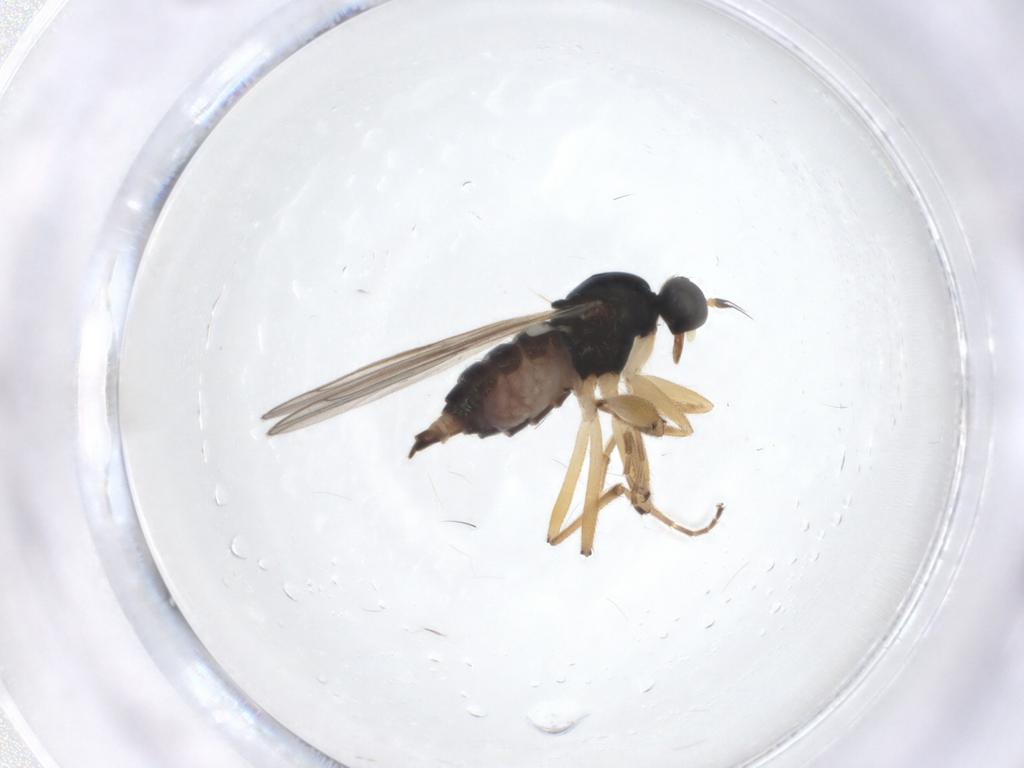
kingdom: Animalia
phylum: Arthropoda
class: Insecta
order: Diptera
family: Hybotidae
